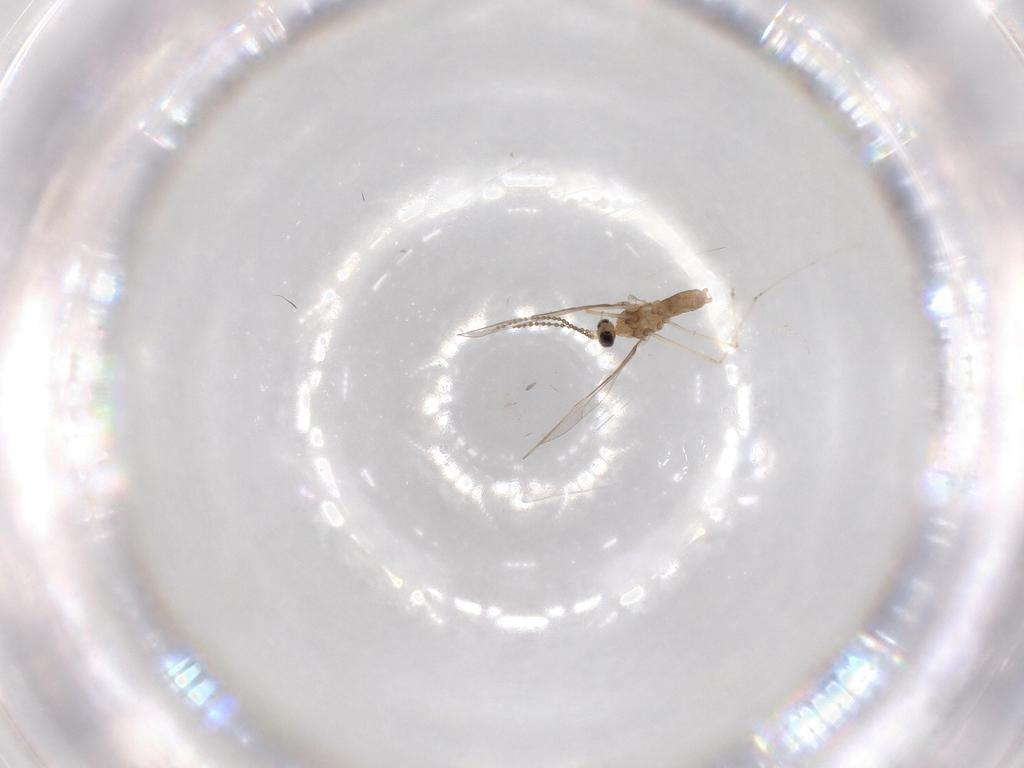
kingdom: Animalia
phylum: Arthropoda
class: Insecta
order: Diptera
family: Cecidomyiidae
